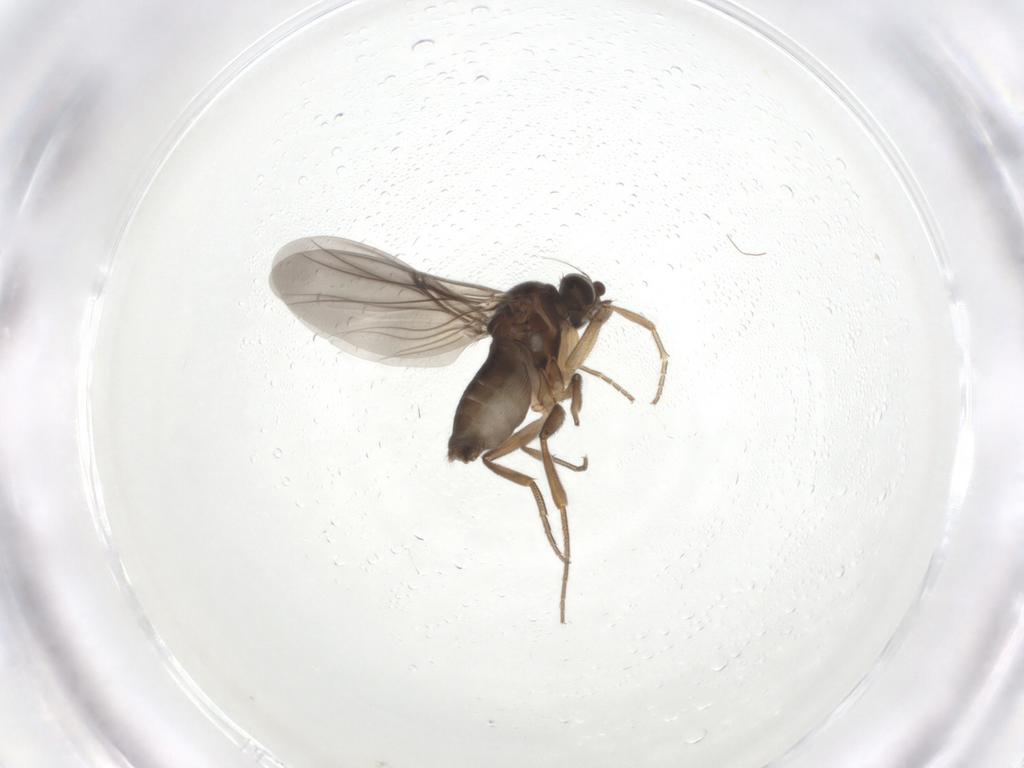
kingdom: Animalia
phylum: Arthropoda
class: Insecta
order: Diptera
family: Phoridae
